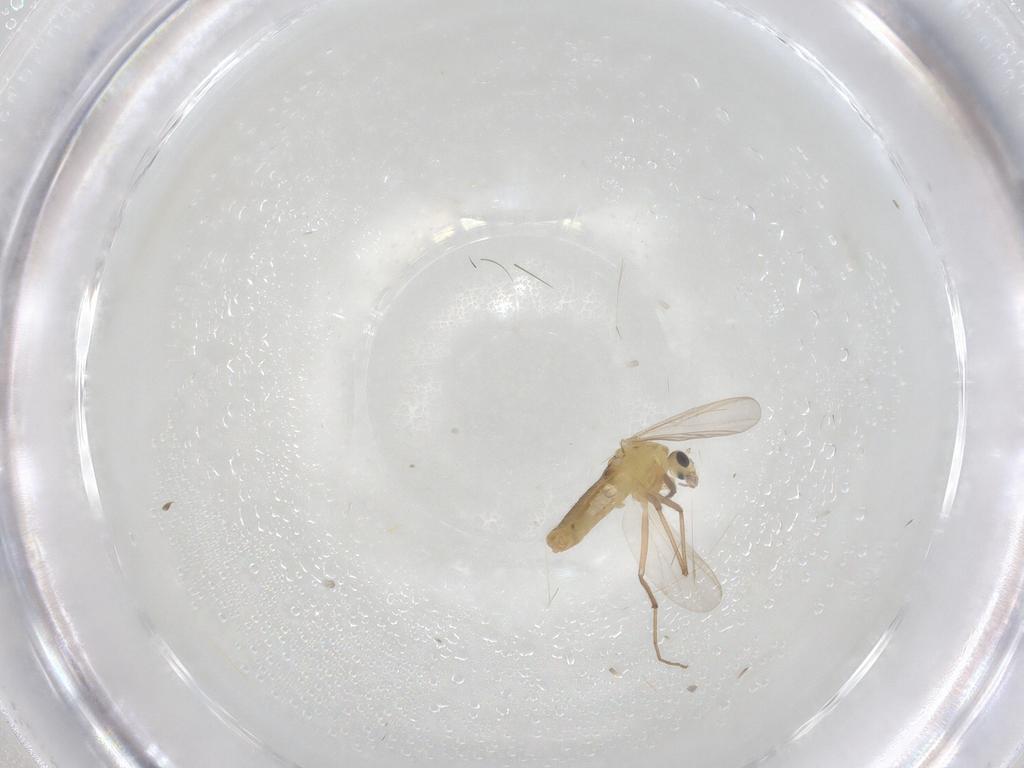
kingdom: Animalia
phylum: Arthropoda
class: Insecta
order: Diptera
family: Chironomidae
